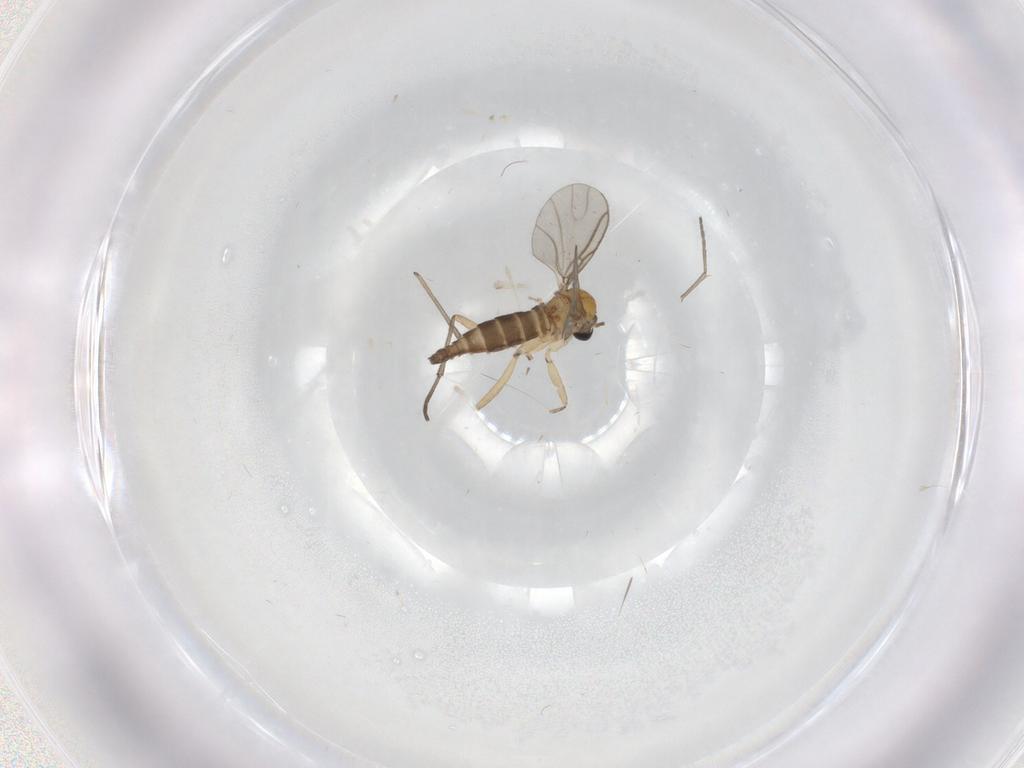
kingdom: Animalia
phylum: Arthropoda
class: Insecta
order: Diptera
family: Mycetophilidae
